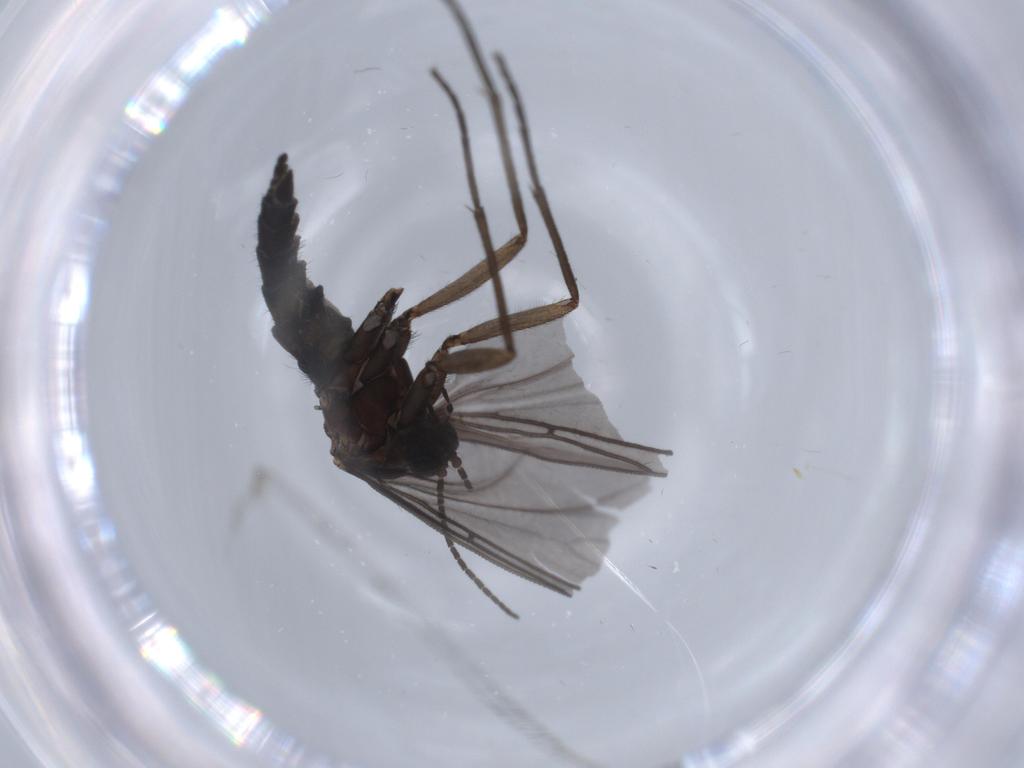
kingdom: Animalia
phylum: Arthropoda
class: Insecta
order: Diptera
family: Sciaridae
